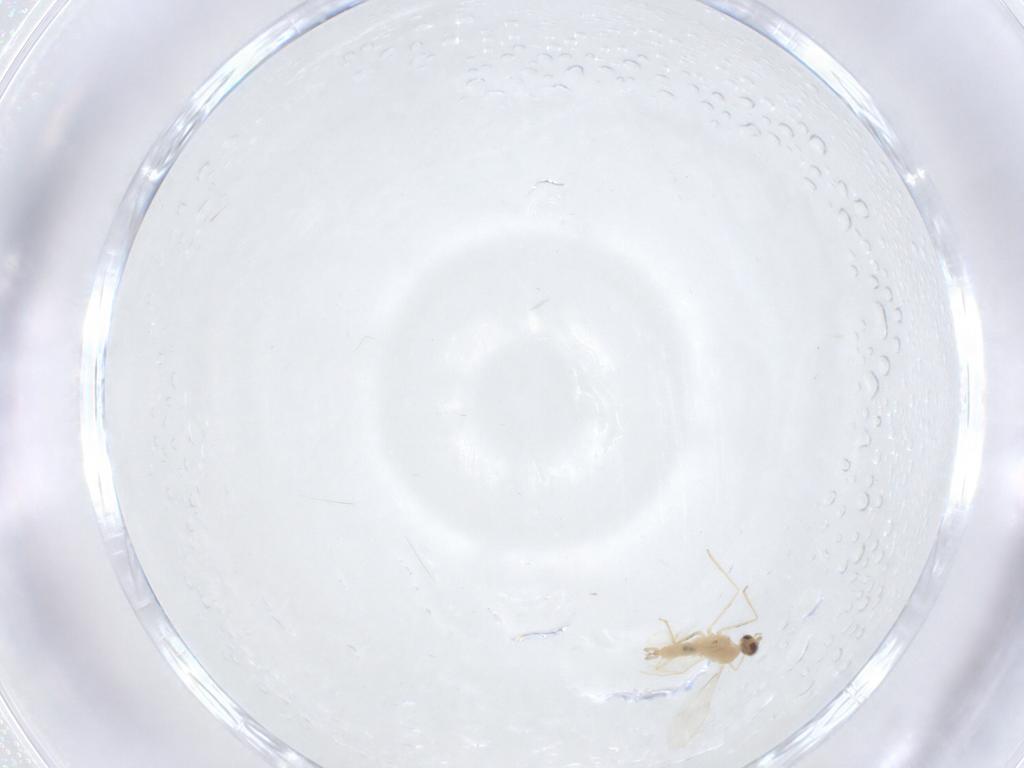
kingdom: Animalia
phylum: Arthropoda
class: Insecta
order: Diptera
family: Cecidomyiidae
